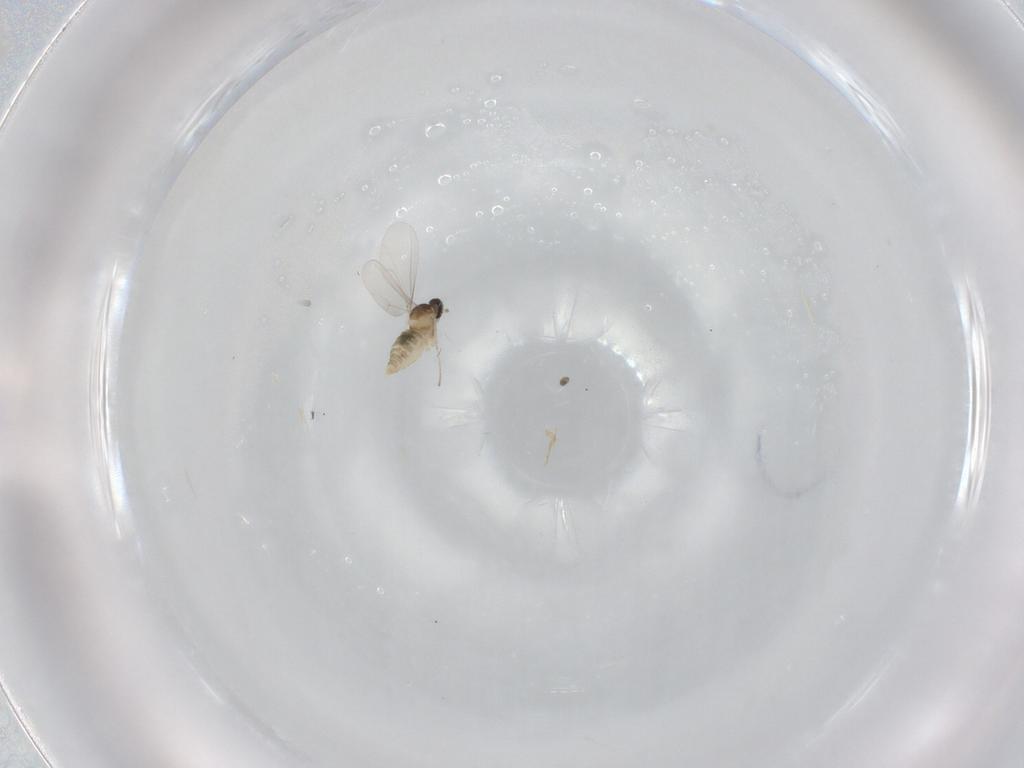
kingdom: Animalia
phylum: Arthropoda
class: Insecta
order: Diptera
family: Cecidomyiidae
